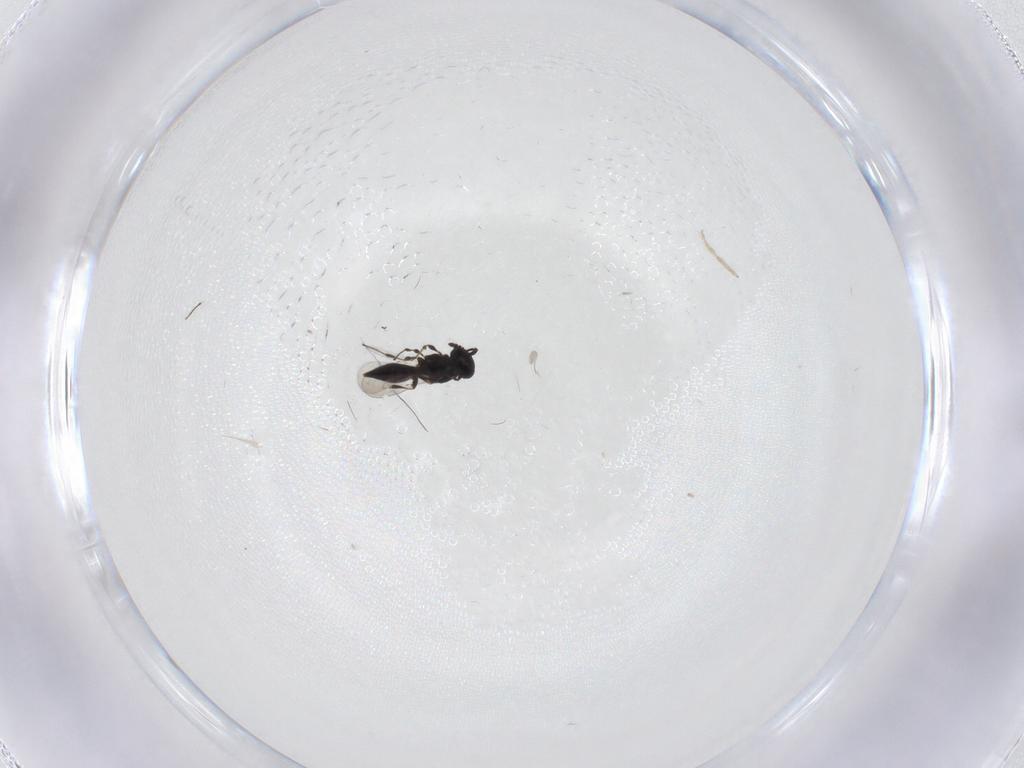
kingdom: Animalia
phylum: Arthropoda
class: Insecta
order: Hymenoptera
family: Platygastridae
